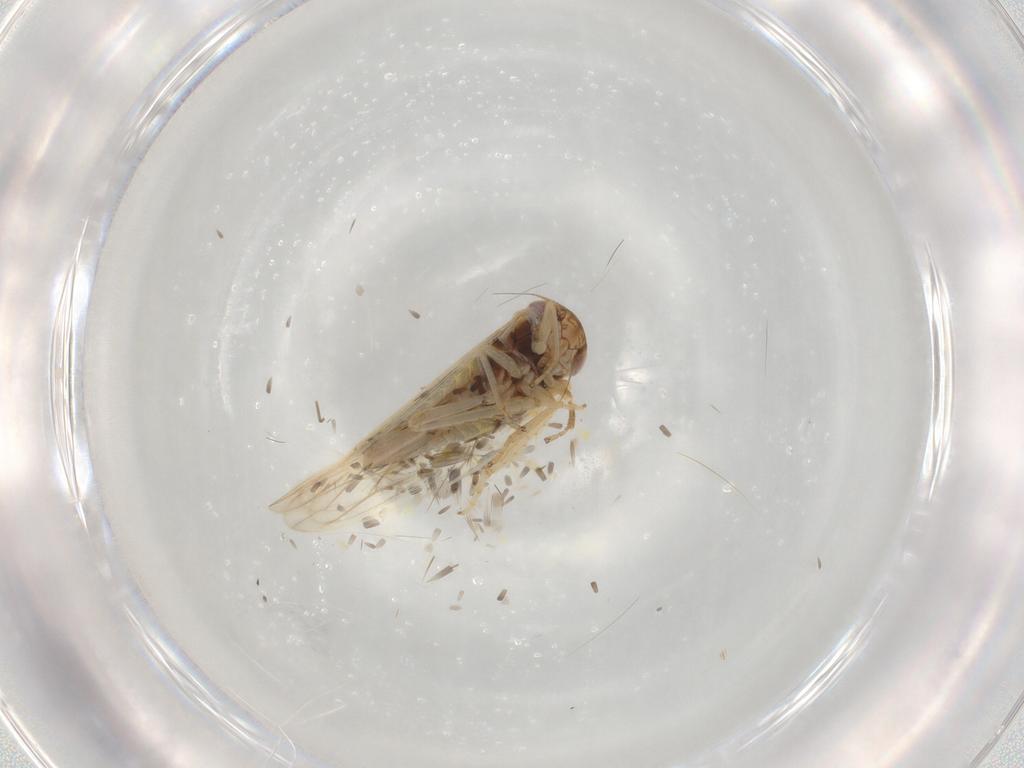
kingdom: Animalia
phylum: Arthropoda
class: Insecta
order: Hemiptera
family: Cicadellidae
